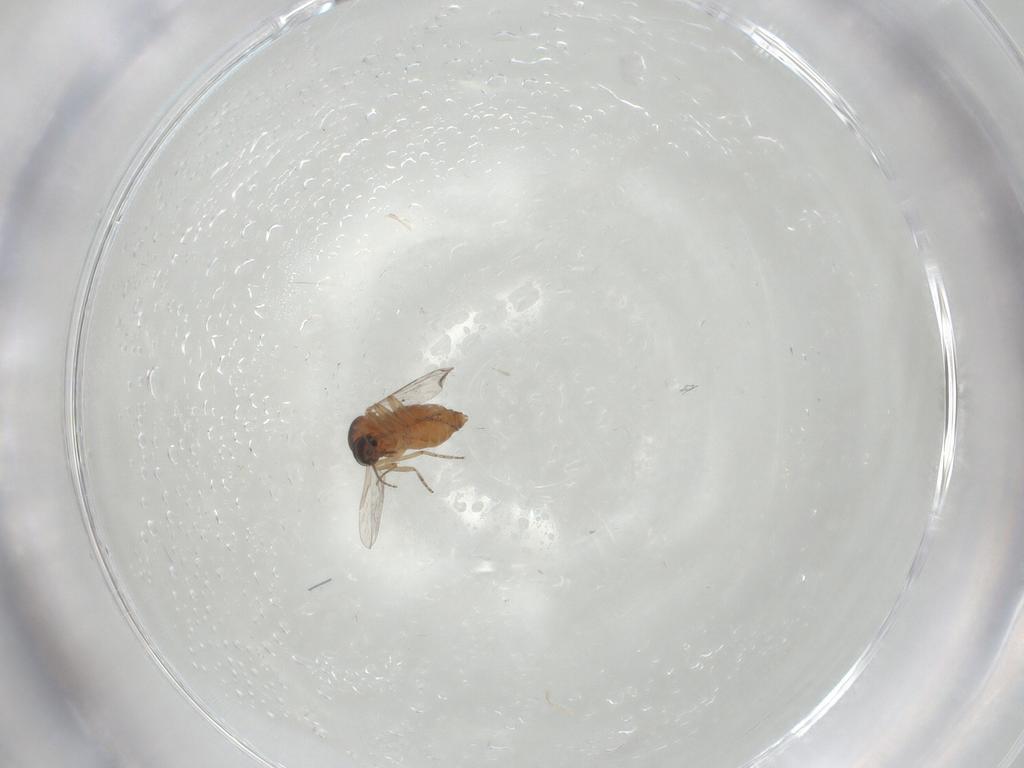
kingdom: Animalia
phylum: Arthropoda
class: Insecta
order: Diptera
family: Ceratopogonidae
